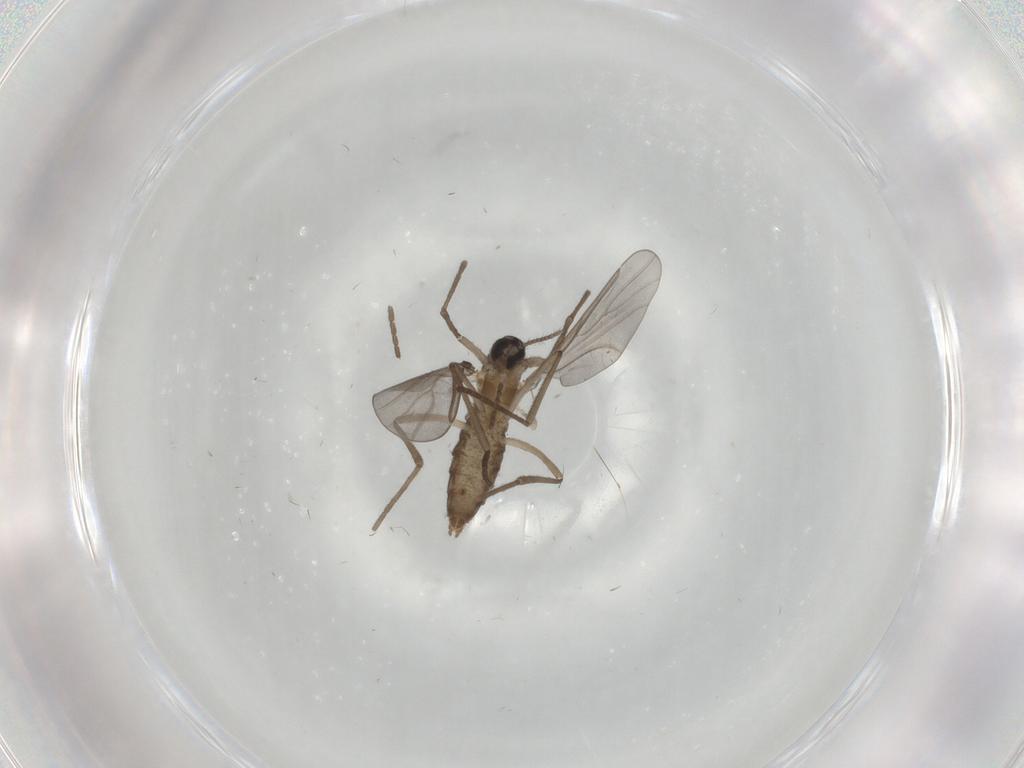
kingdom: Animalia
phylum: Arthropoda
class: Insecta
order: Diptera
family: Cecidomyiidae
